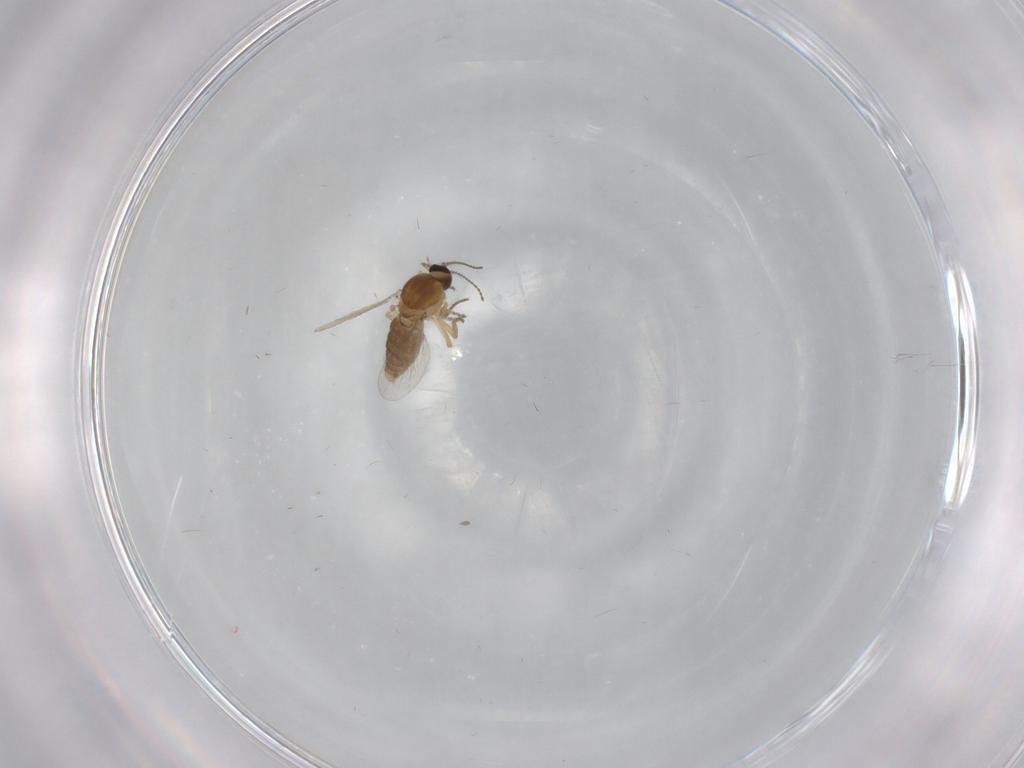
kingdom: Animalia
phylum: Arthropoda
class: Insecta
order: Diptera
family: Ceratopogonidae
